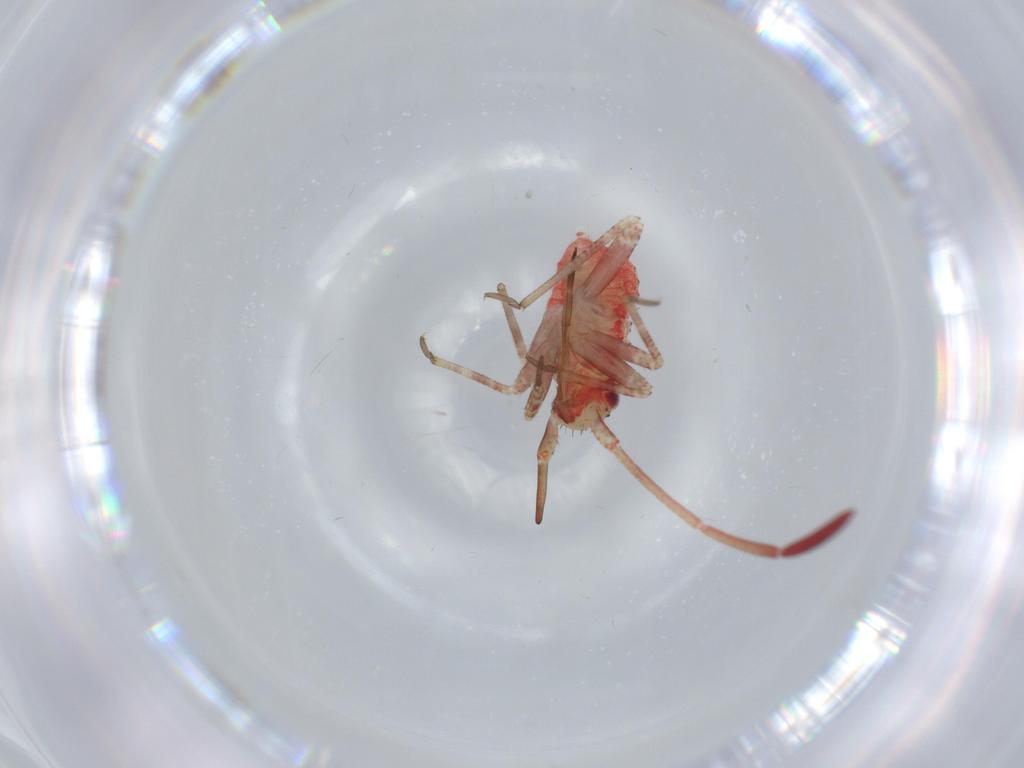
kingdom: Animalia
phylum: Arthropoda
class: Insecta
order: Hemiptera
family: Miridae
